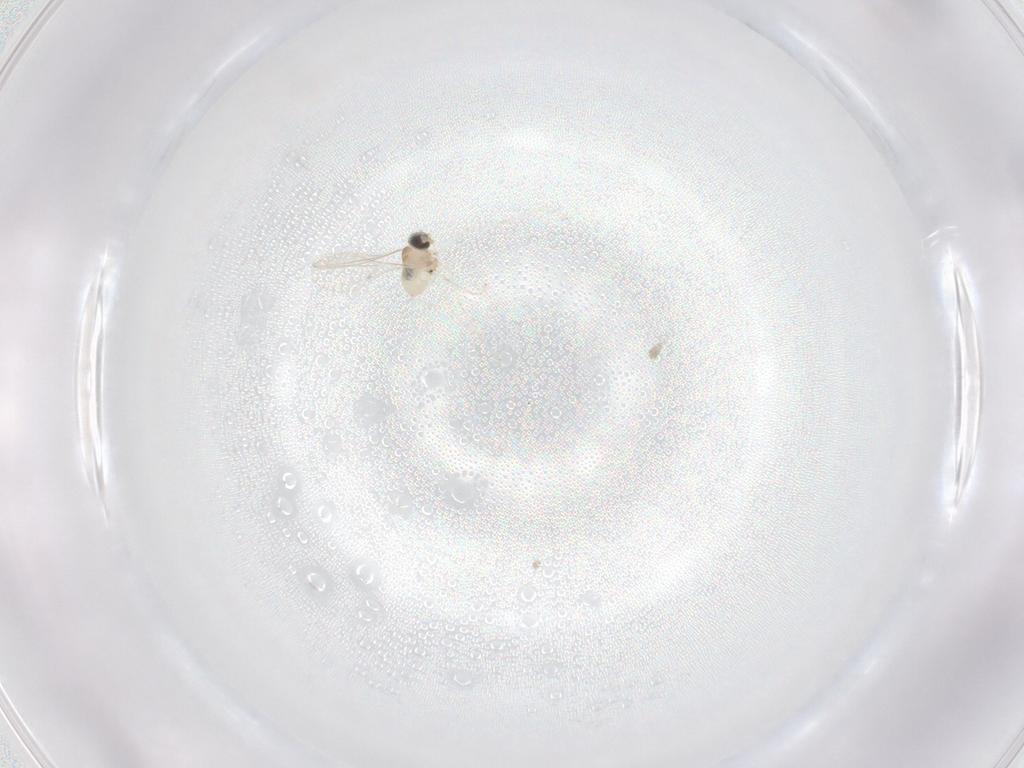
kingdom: Animalia
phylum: Arthropoda
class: Insecta
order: Diptera
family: Cecidomyiidae
